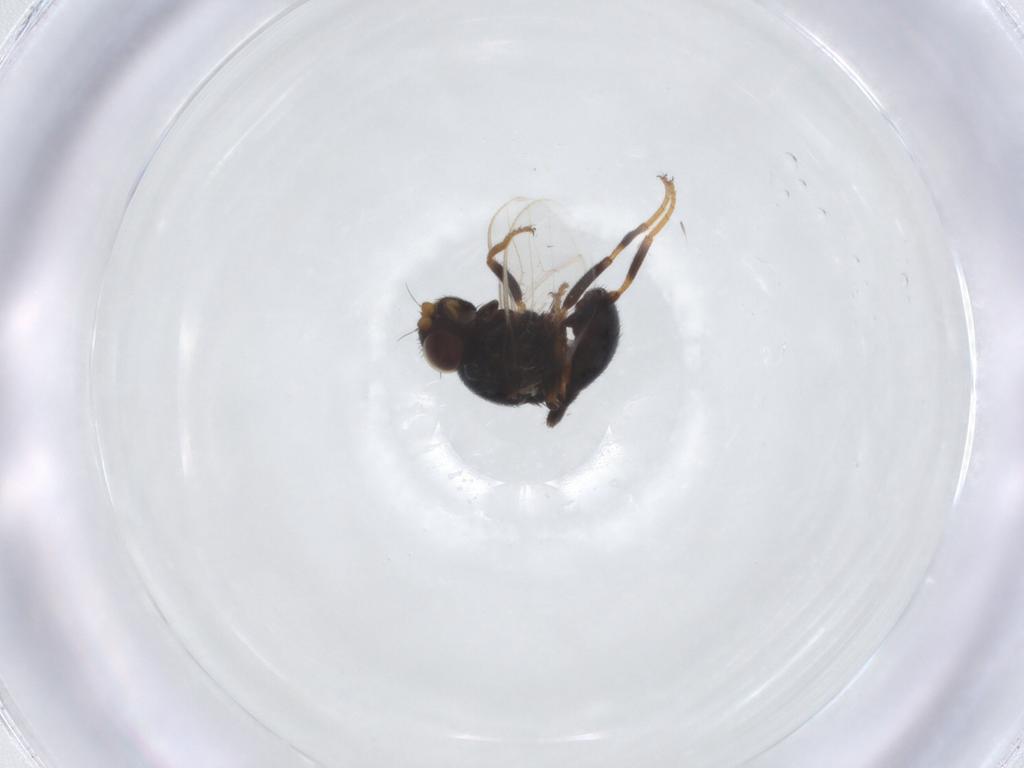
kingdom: Animalia
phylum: Arthropoda
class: Insecta
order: Diptera
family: Chloropidae
